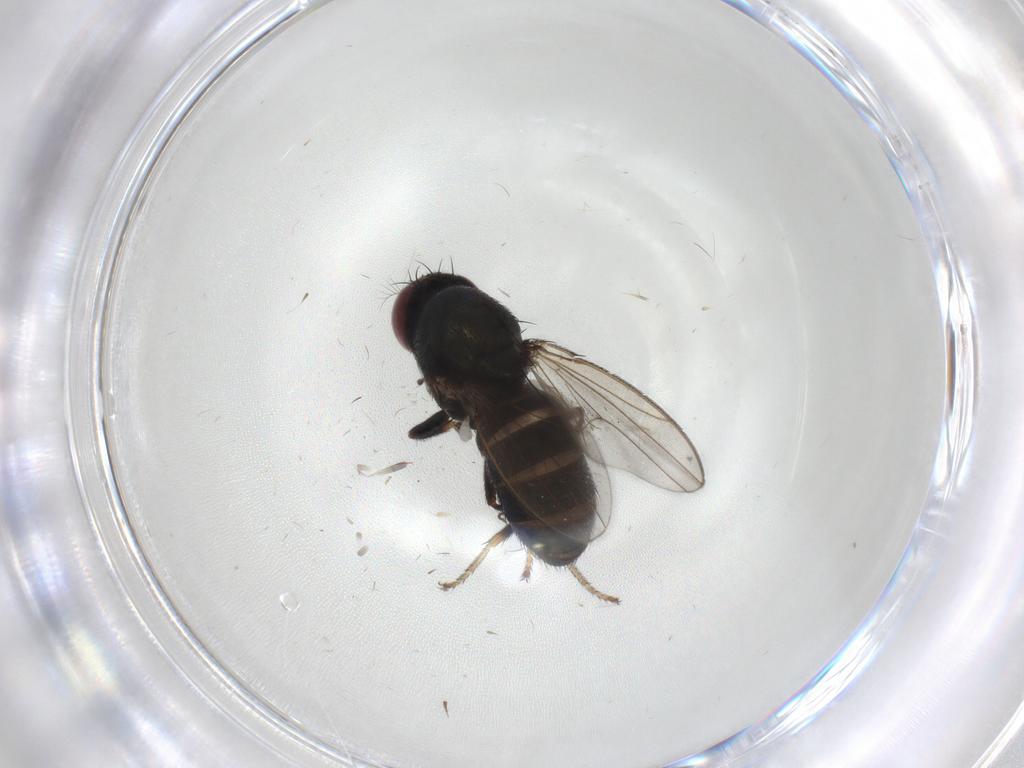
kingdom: Animalia
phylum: Arthropoda
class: Insecta
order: Diptera
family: Ephydridae
